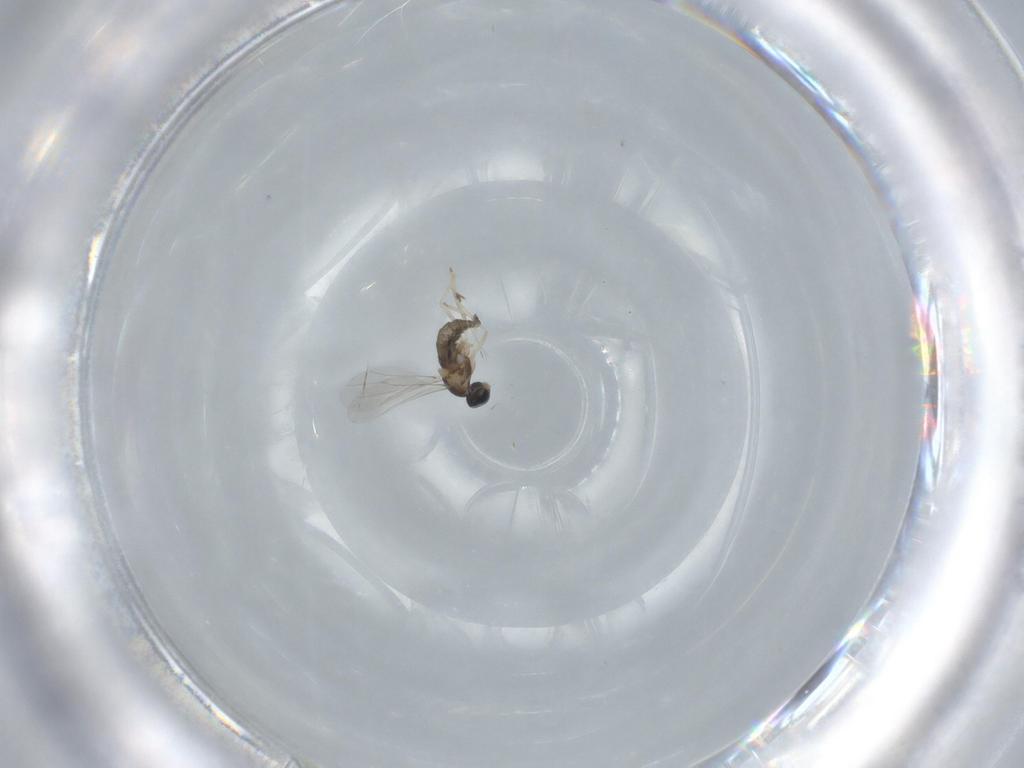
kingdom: Animalia
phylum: Arthropoda
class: Insecta
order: Diptera
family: Cecidomyiidae
